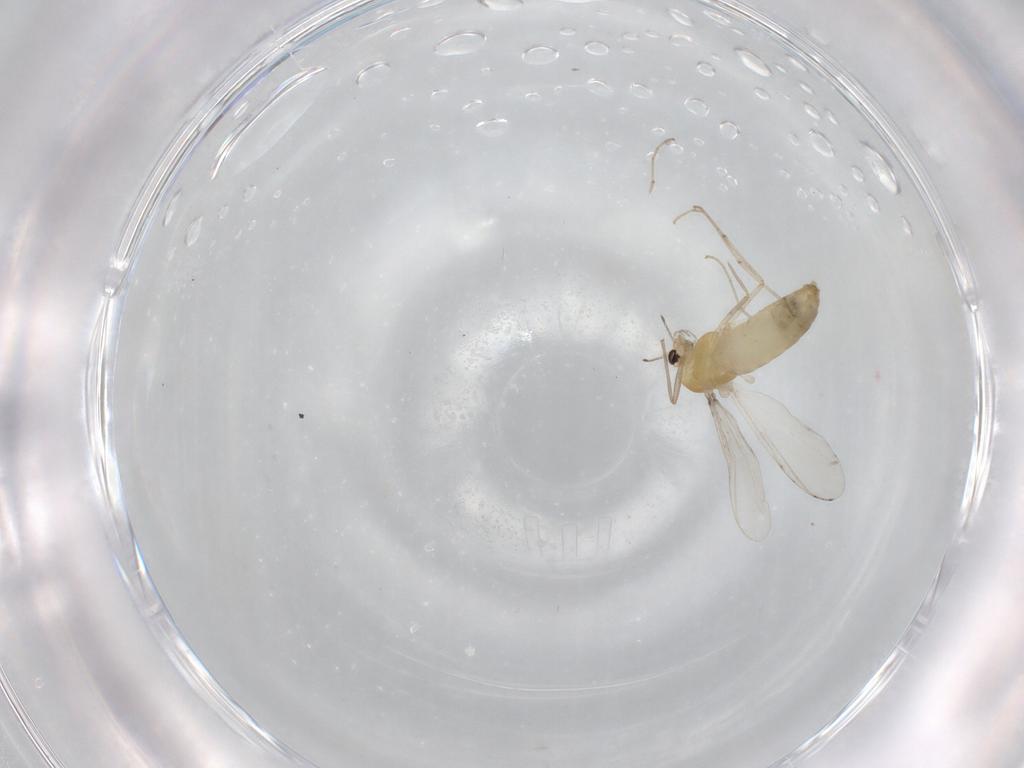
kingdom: Animalia
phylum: Arthropoda
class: Insecta
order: Diptera
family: Chironomidae
